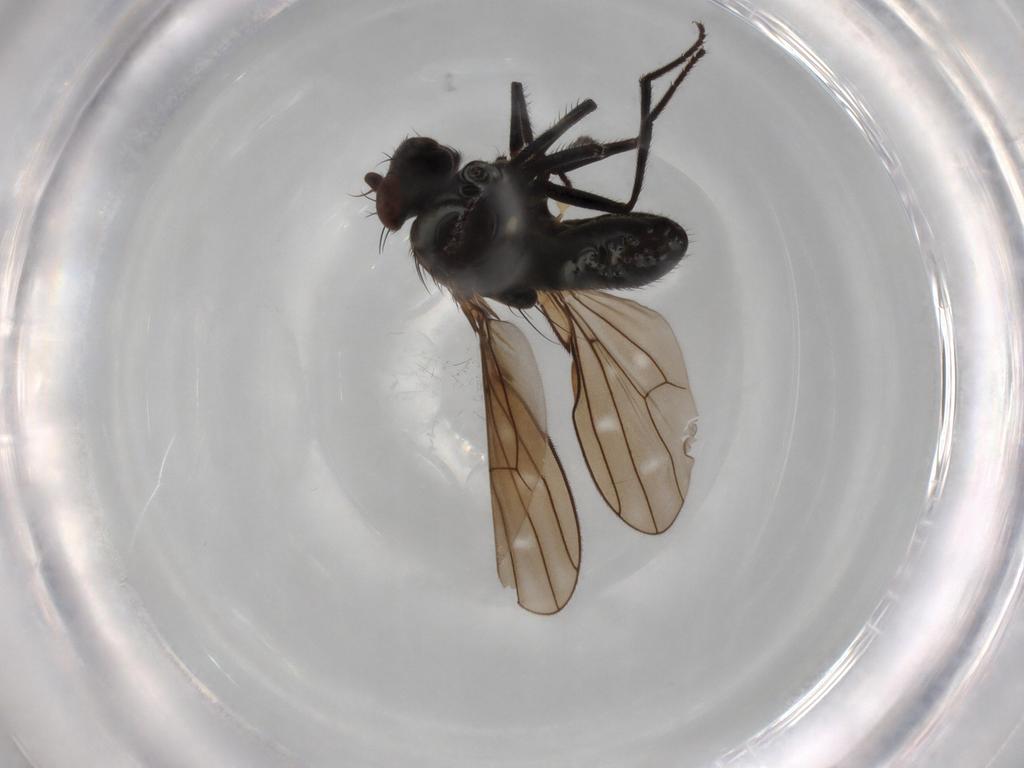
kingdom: Animalia
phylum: Arthropoda
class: Insecta
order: Diptera
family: Ephydridae
